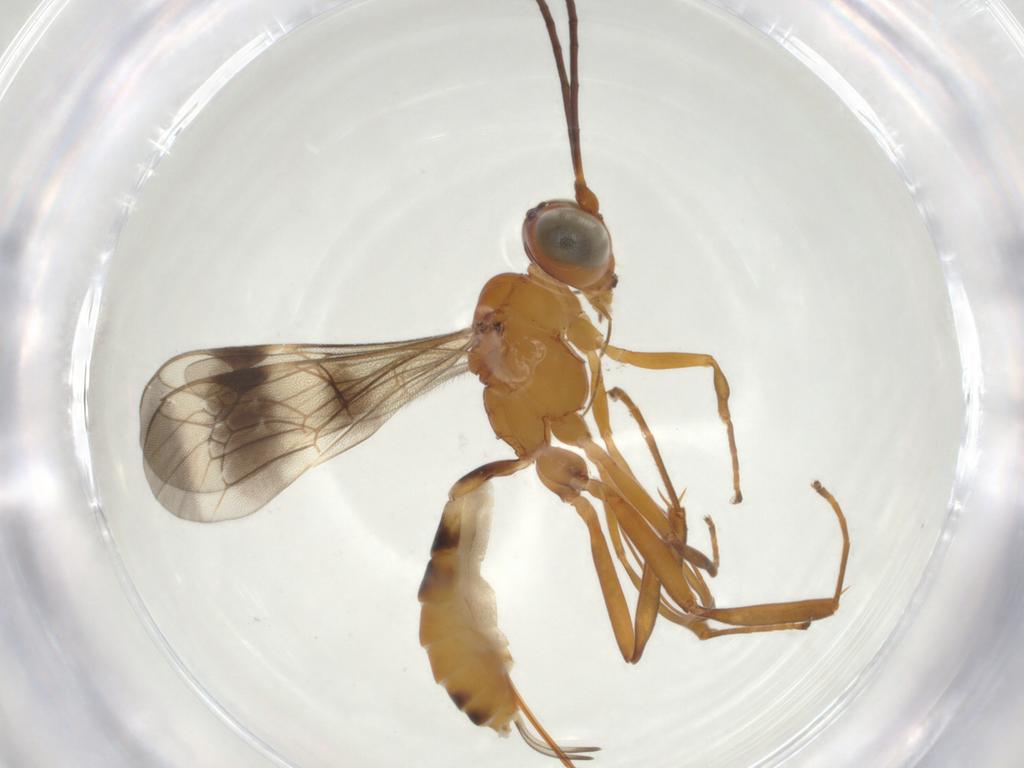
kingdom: Animalia
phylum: Arthropoda
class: Insecta
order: Hymenoptera
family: Ichneumonidae
